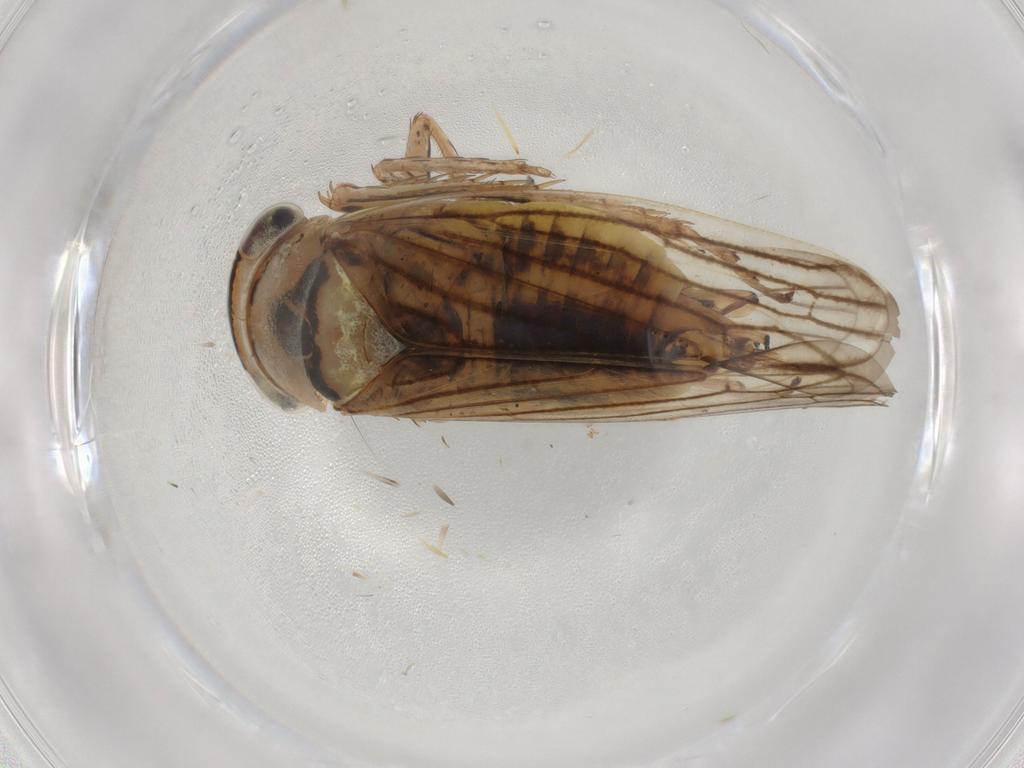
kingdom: Animalia
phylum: Arthropoda
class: Insecta
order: Hemiptera
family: Cicadellidae
